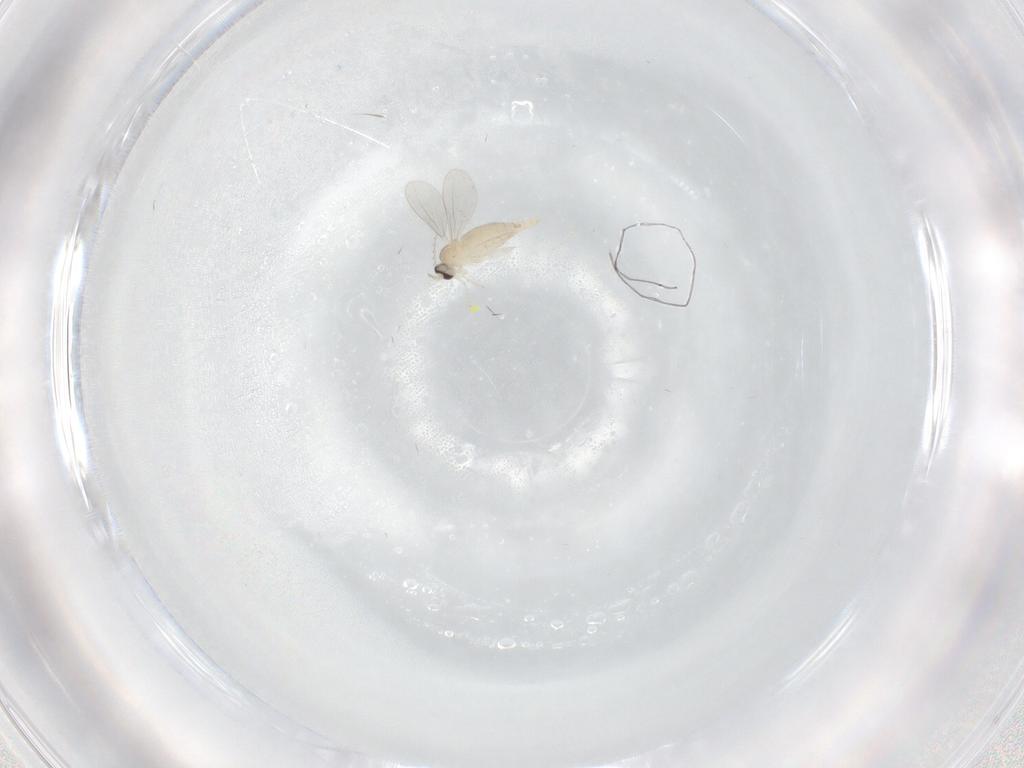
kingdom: Animalia
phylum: Arthropoda
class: Insecta
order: Diptera
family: Cecidomyiidae
